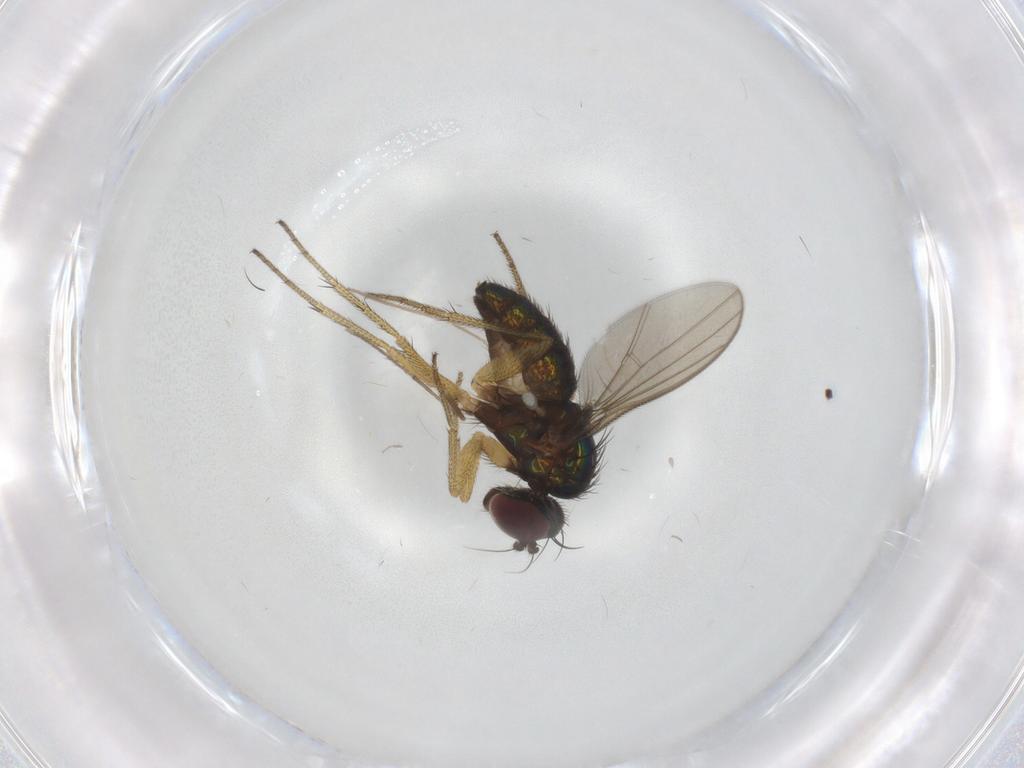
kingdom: Animalia
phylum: Arthropoda
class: Insecta
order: Diptera
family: Dolichopodidae
